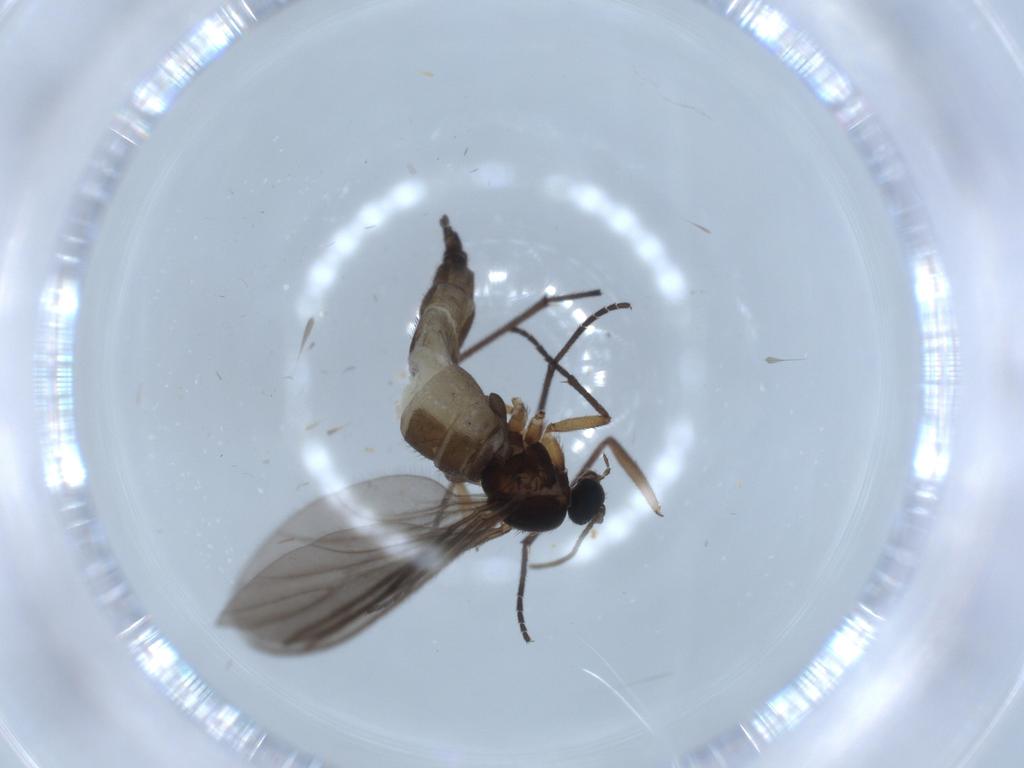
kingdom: Animalia
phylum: Arthropoda
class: Insecta
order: Diptera
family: Sciaridae
